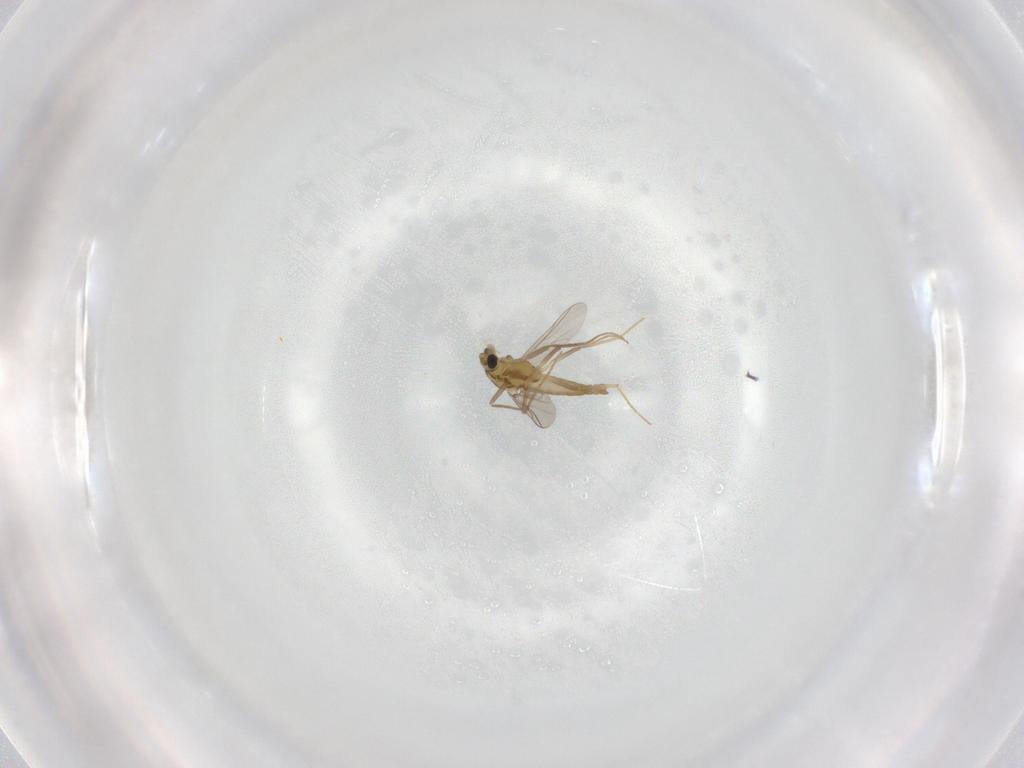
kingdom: Animalia
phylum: Arthropoda
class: Insecta
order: Diptera
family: Chironomidae
